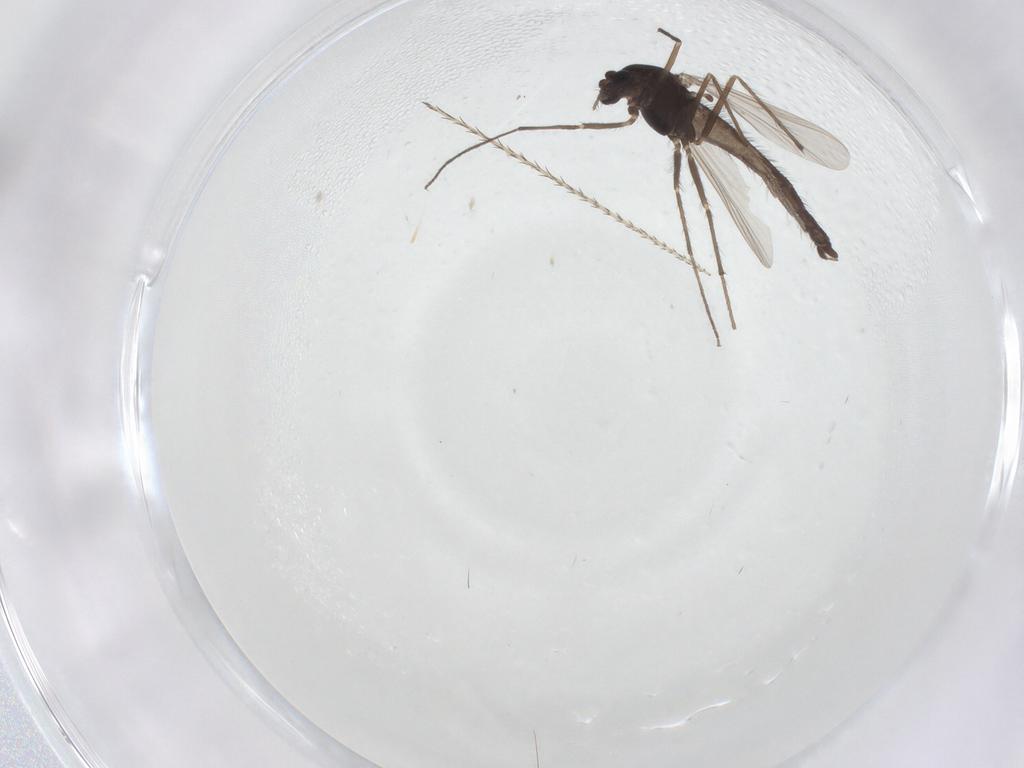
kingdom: Animalia
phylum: Arthropoda
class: Insecta
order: Diptera
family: Chironomidae
